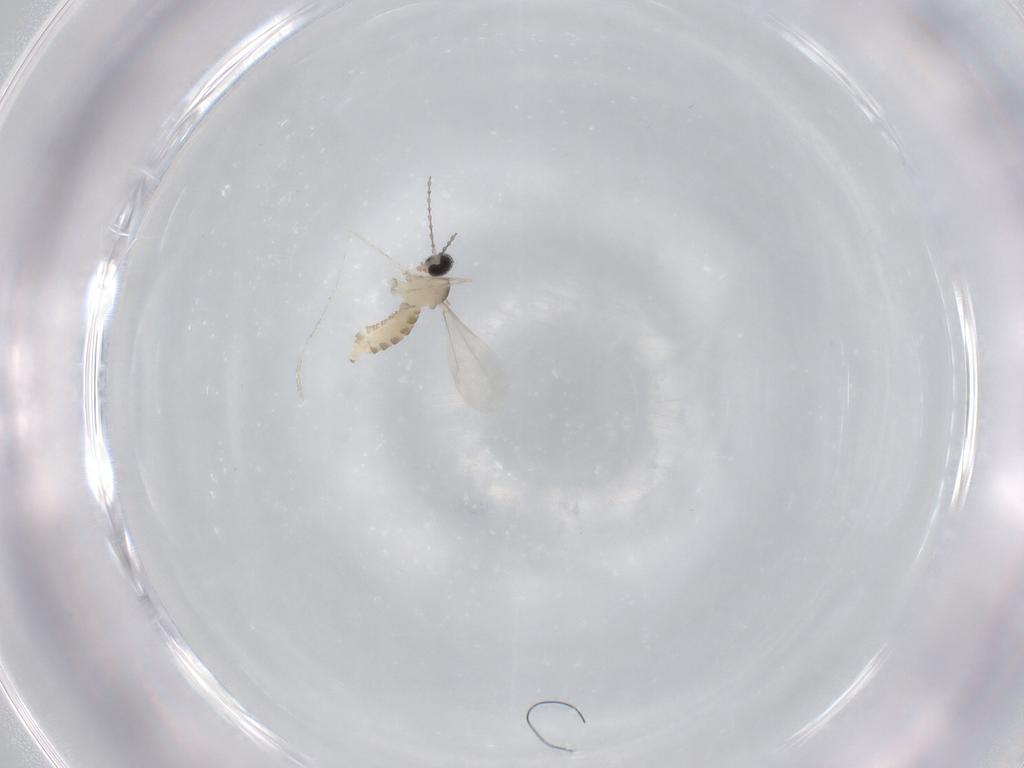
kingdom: Animalia
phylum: Arthropoda
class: Insecta
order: Diptera
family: Cecidomyiidae
